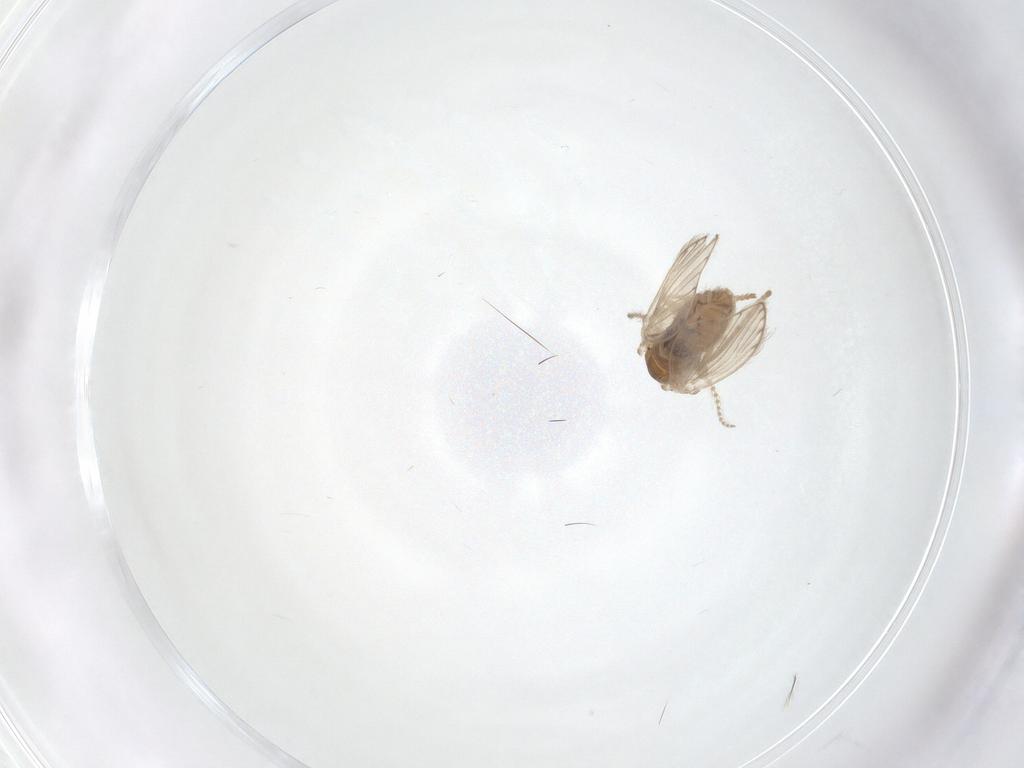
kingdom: Animalia
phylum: Arthropoda
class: Insecta
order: Diptera
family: Psychodidae
